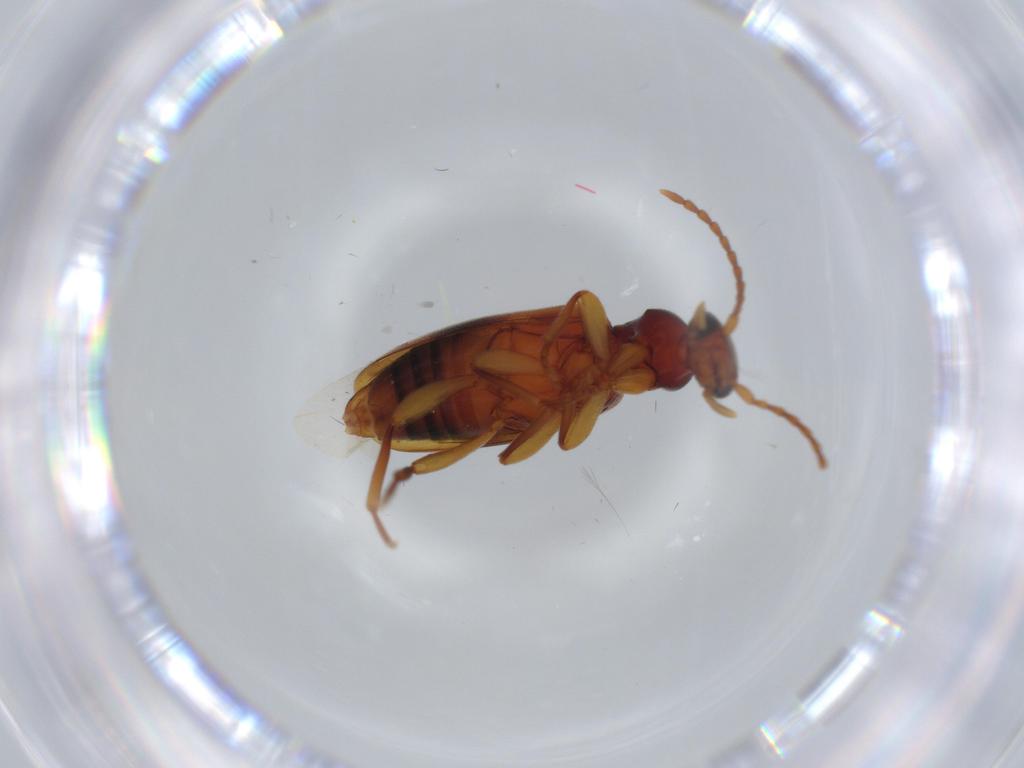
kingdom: Animalia
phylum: Arthropoda
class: Insecta
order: Coleoptera
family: Anthicidae
